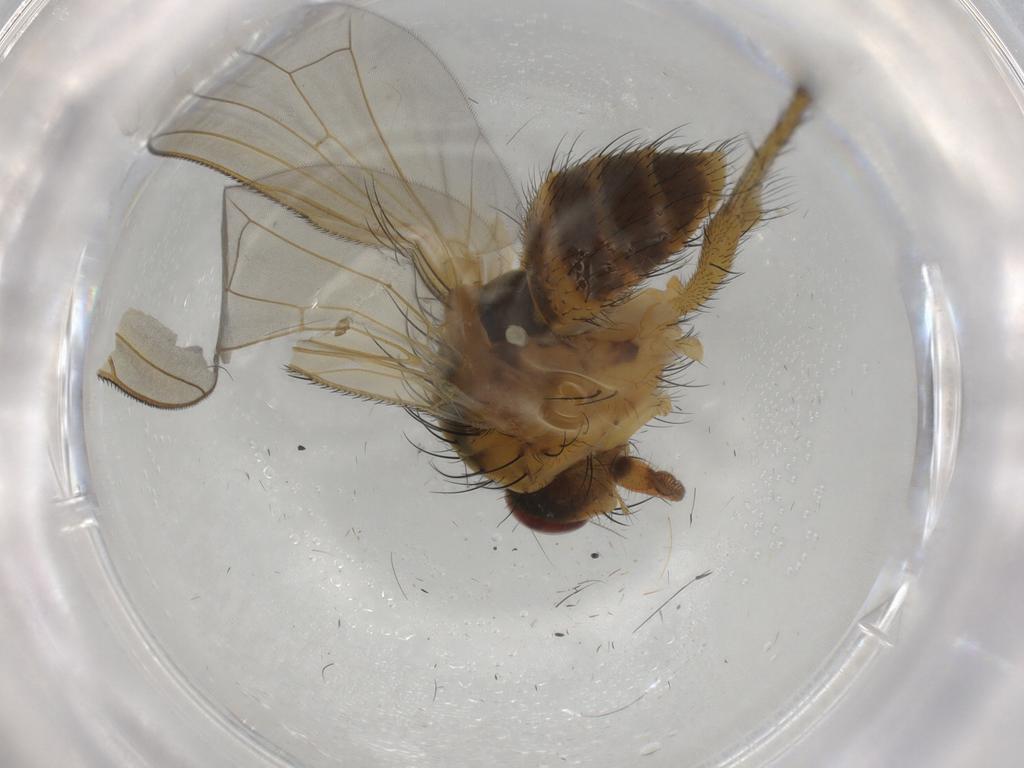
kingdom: Animalia
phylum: Arthropoda
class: Insecta
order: Diptera
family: Anthomyiidae
